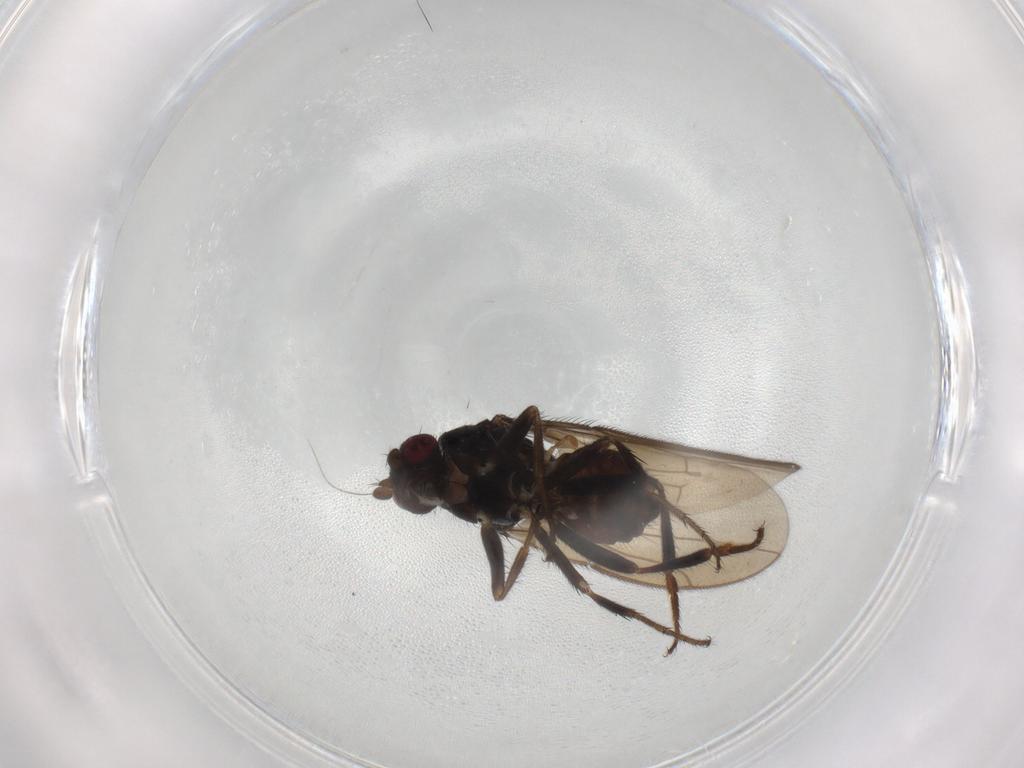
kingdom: Animalia
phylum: Arthropoda
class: Insecta
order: Diptera
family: Sphaeroceridae
